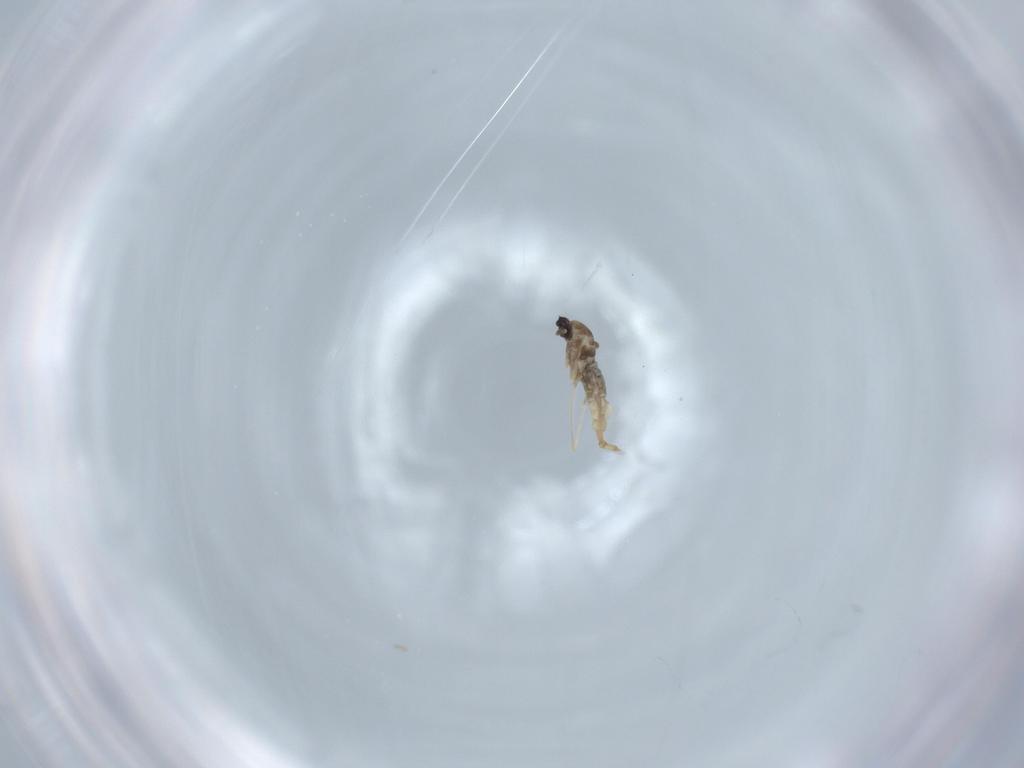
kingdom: Animalia
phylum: Arthropoda
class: Insecta
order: Diptera
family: Cecidomyiidae
